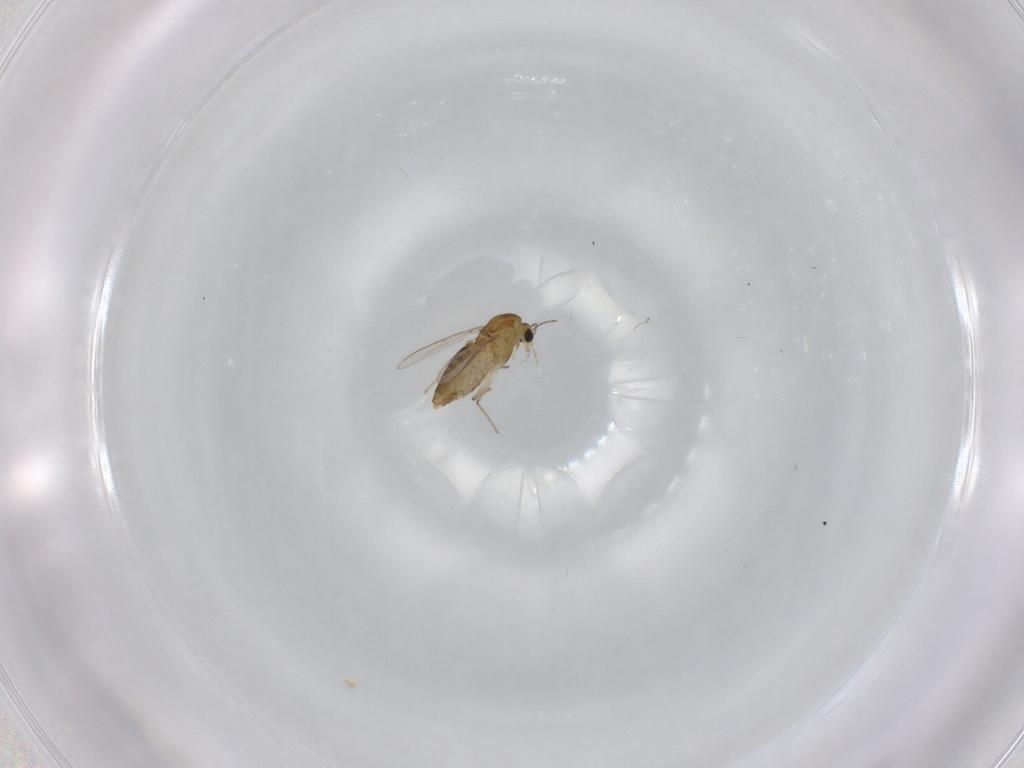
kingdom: Animalia
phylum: Arthropoda
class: Insecta
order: Diptera
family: Chironomidae
